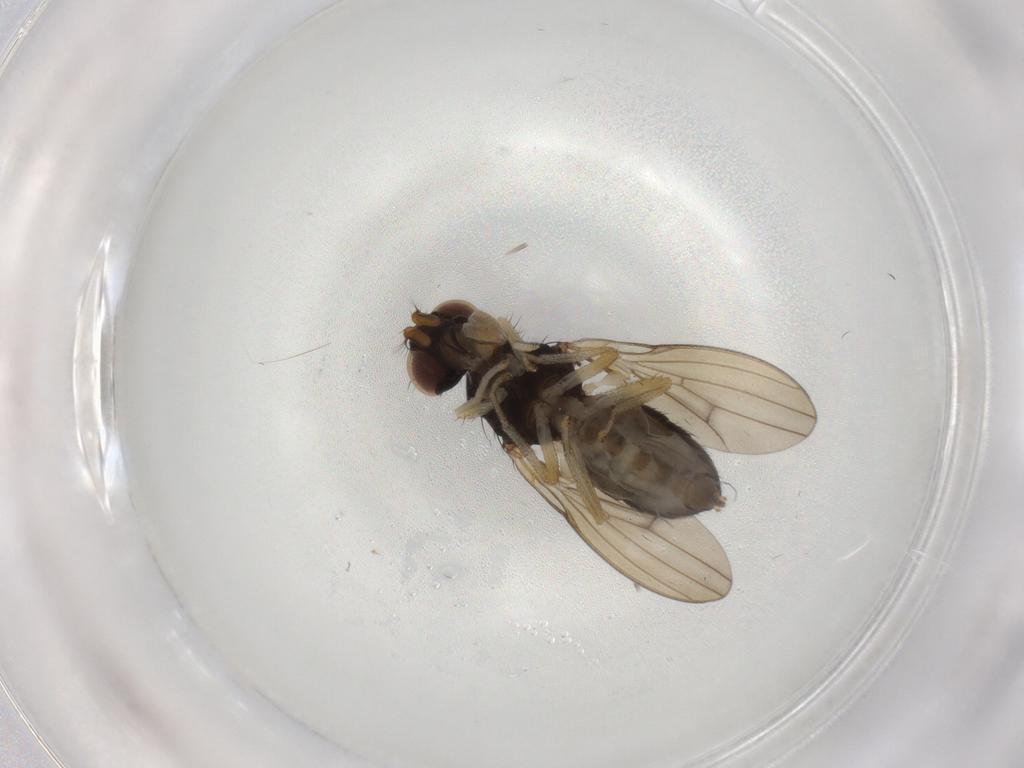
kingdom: Animalia
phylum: Arthropoda
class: Insecta
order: Diptera
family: Syrphidae
